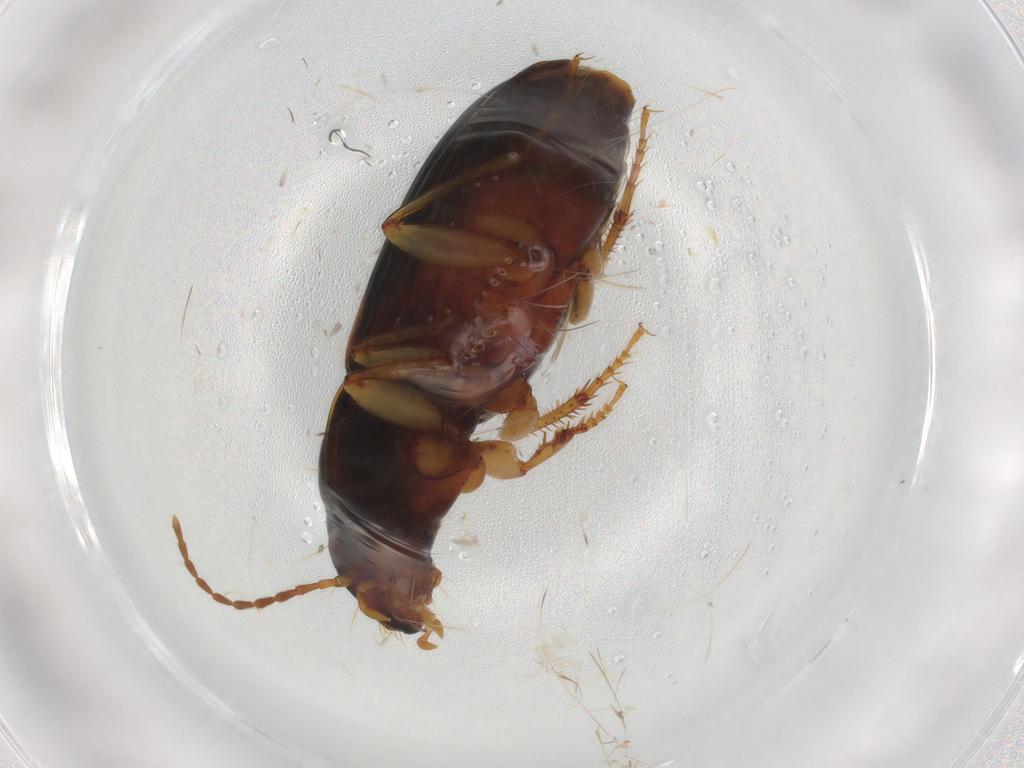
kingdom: Animalia
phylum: Arthropoda
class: Insecta
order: Coleoptera
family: Carabidae
